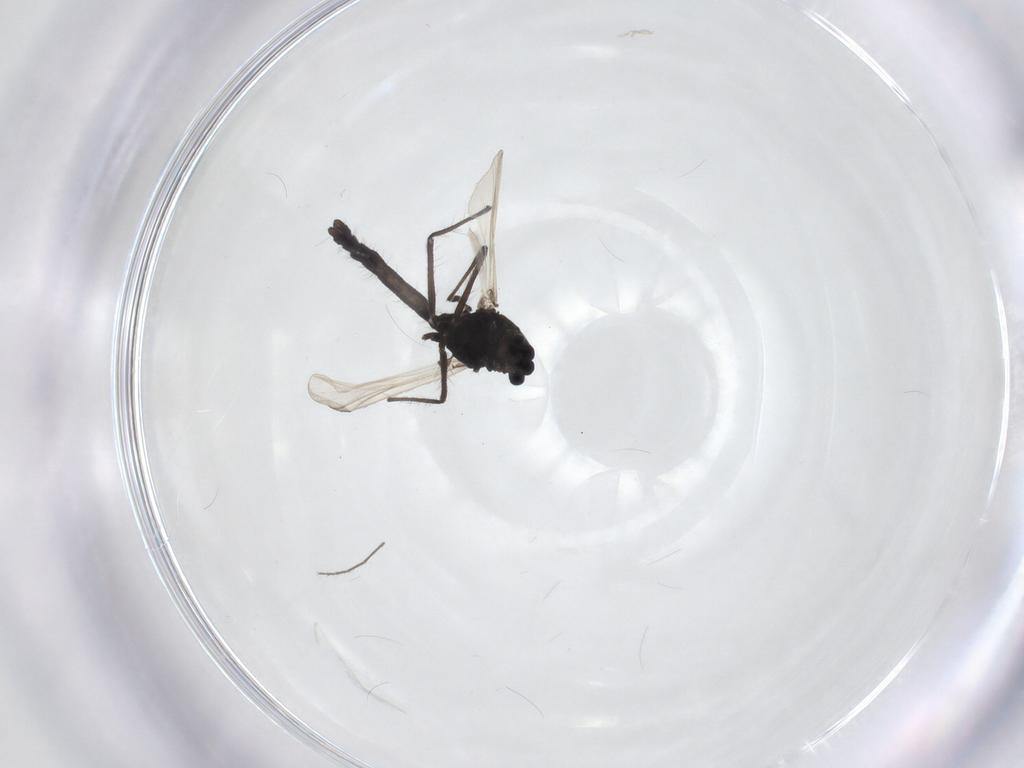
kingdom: Animalia
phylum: Arthropoda
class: Insecta
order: Diptera
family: Chironomidae
